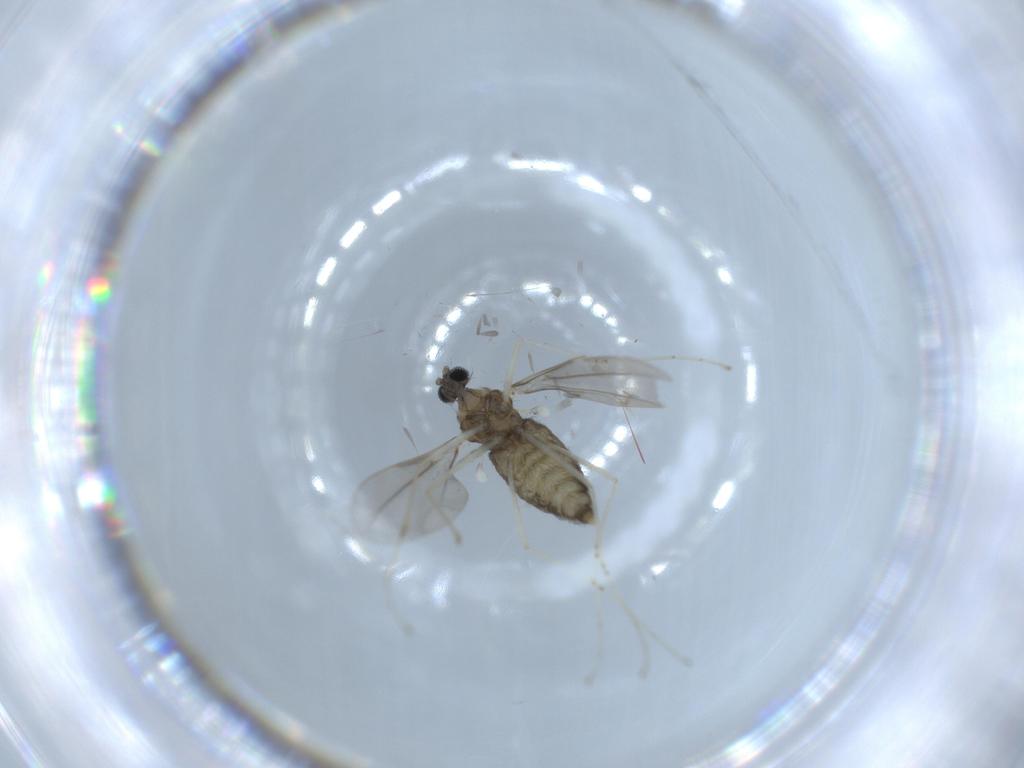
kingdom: Animalia
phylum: Arthropoda
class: Insecta
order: Diptera
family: Cecidomyiidae
